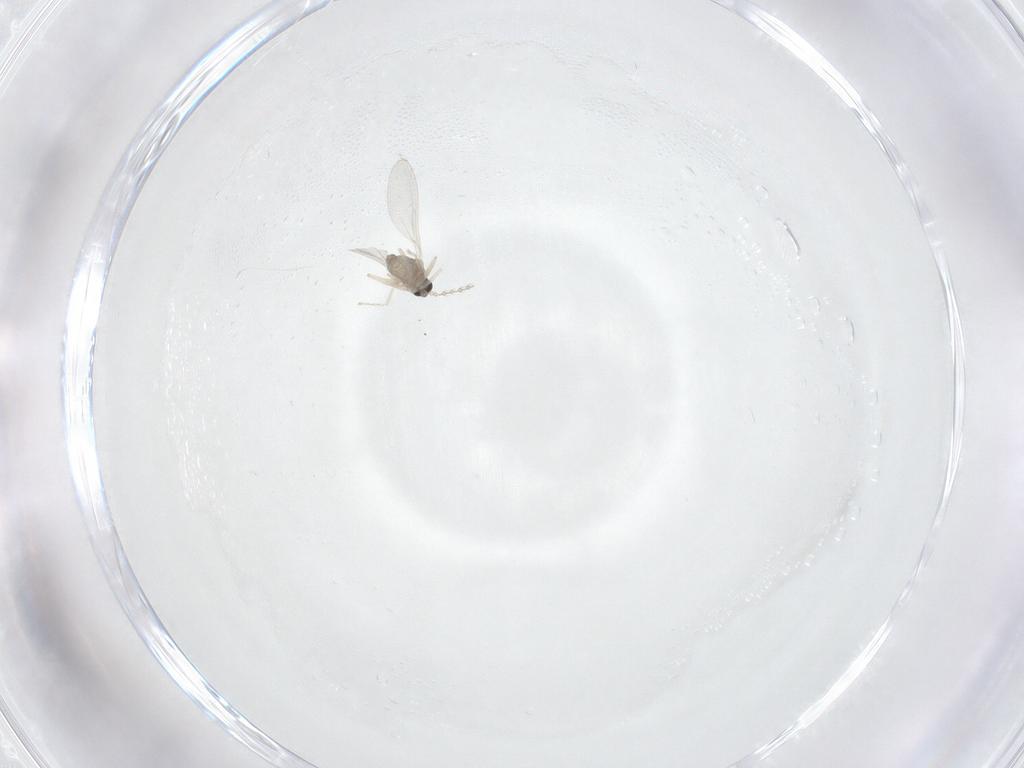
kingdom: Animalia
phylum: Arthropoda
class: Insecta
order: Diptera
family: Cecidomyiidae
